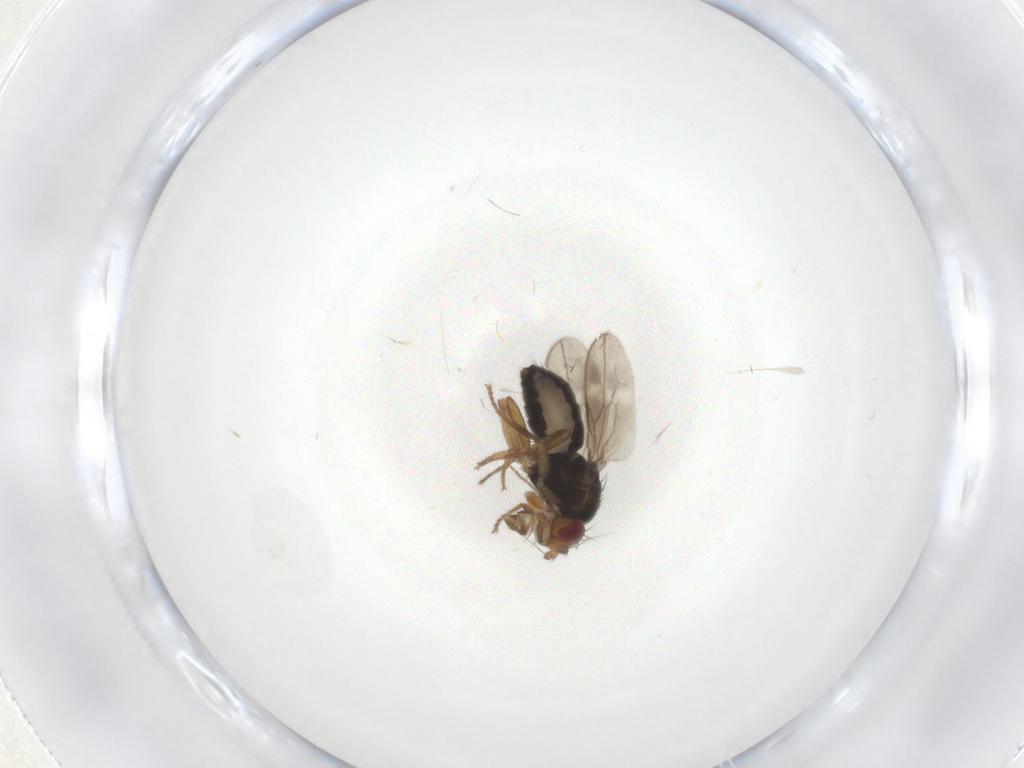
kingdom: Animalia
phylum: Arthropoda
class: Insecta
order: Diptera
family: Sphaeroceridae
